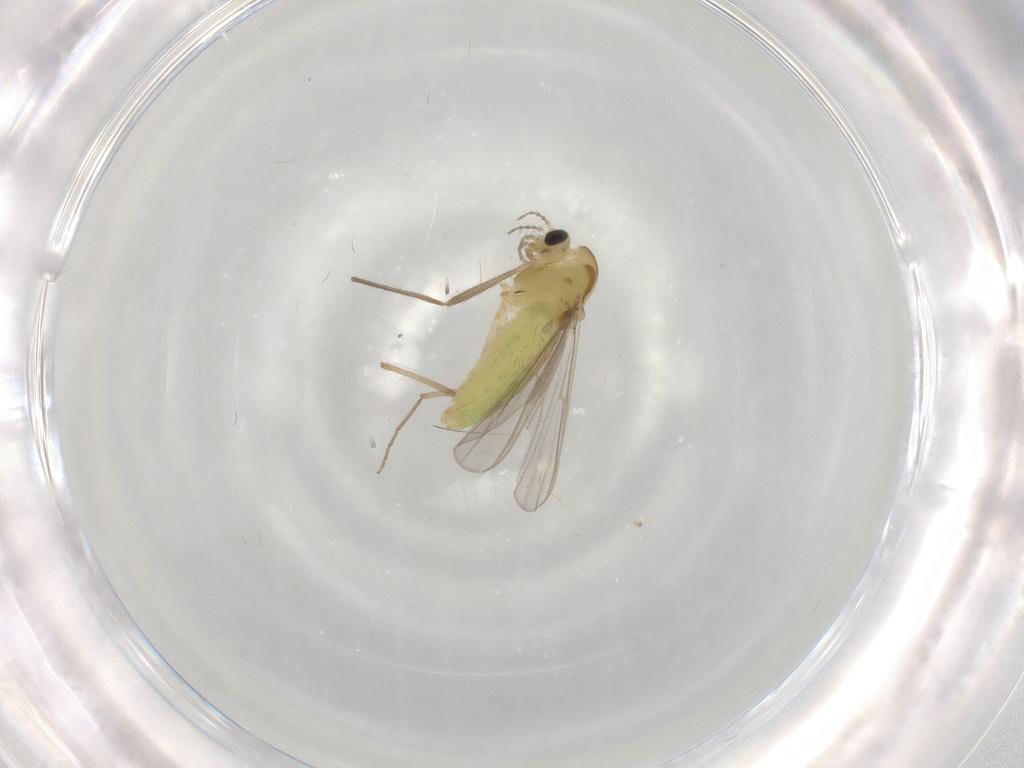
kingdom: Animalia
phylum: Arthropoda
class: Insecta
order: Diptera
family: Chironomidae
